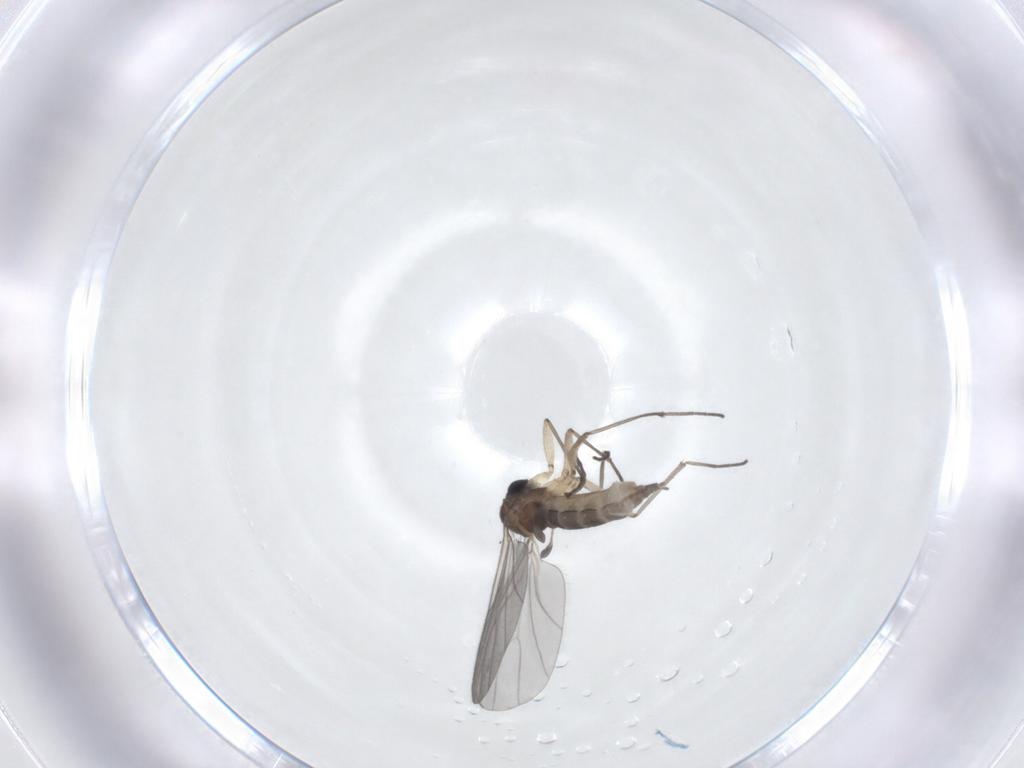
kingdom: Animalia
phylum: Arthropoda
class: Insecta
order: Diptera
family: Sciaridae
